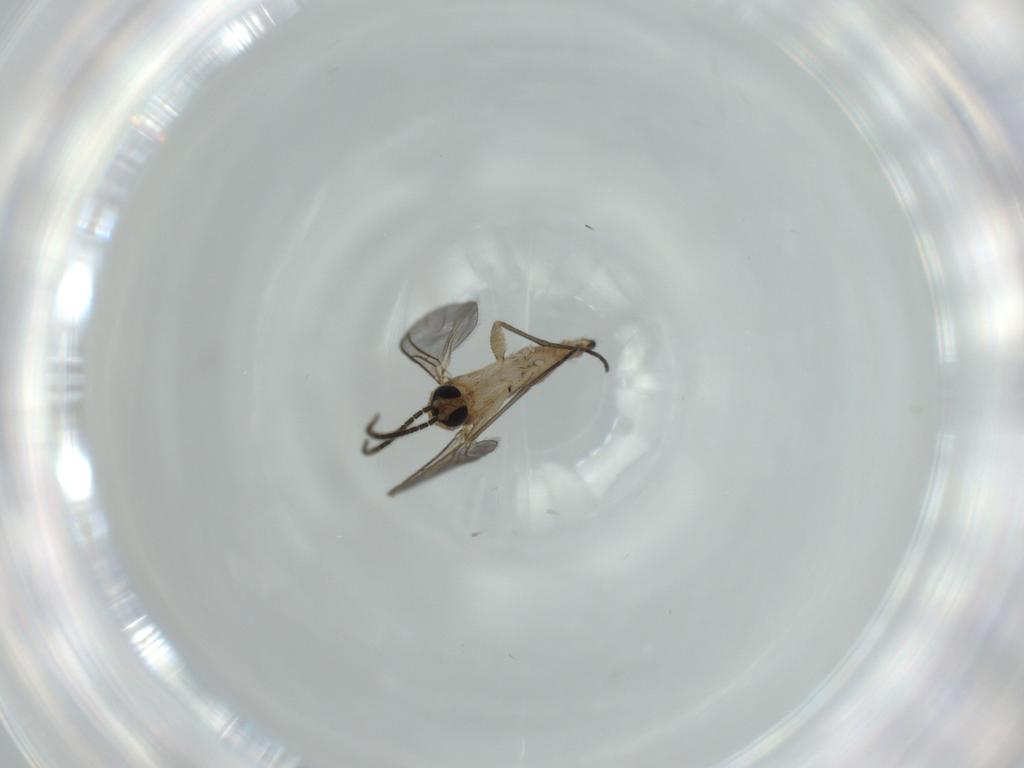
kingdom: Animalia
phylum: Arthropoda
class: Insecta
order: Diptera
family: Sciaridae
